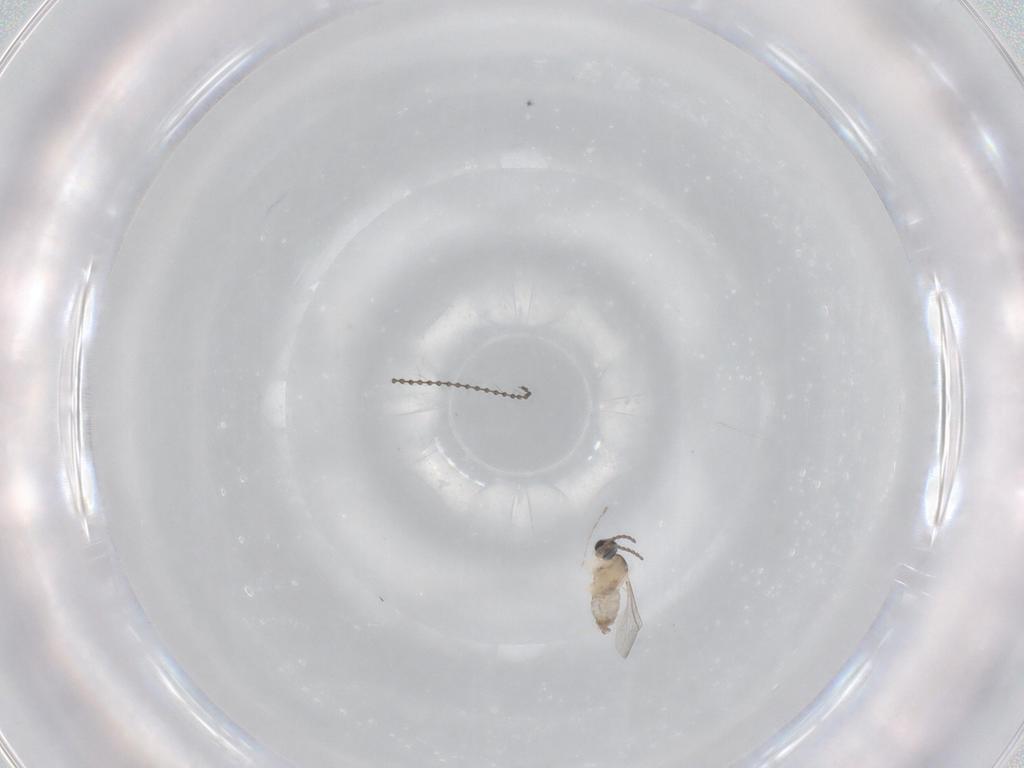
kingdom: Animalia
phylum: Arthropoda
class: Insecta
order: Diptera
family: Cecidomyiidae
